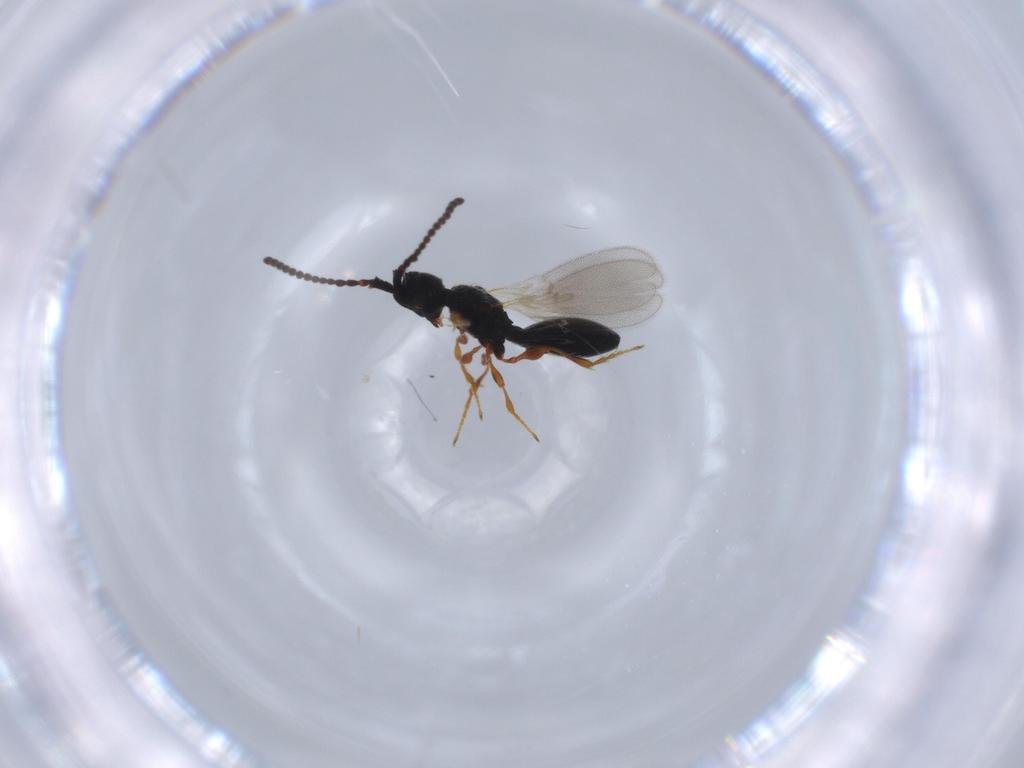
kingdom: Animalia
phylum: Arthropoda
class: Insecta
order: Hymenoptera
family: Diapriidae
